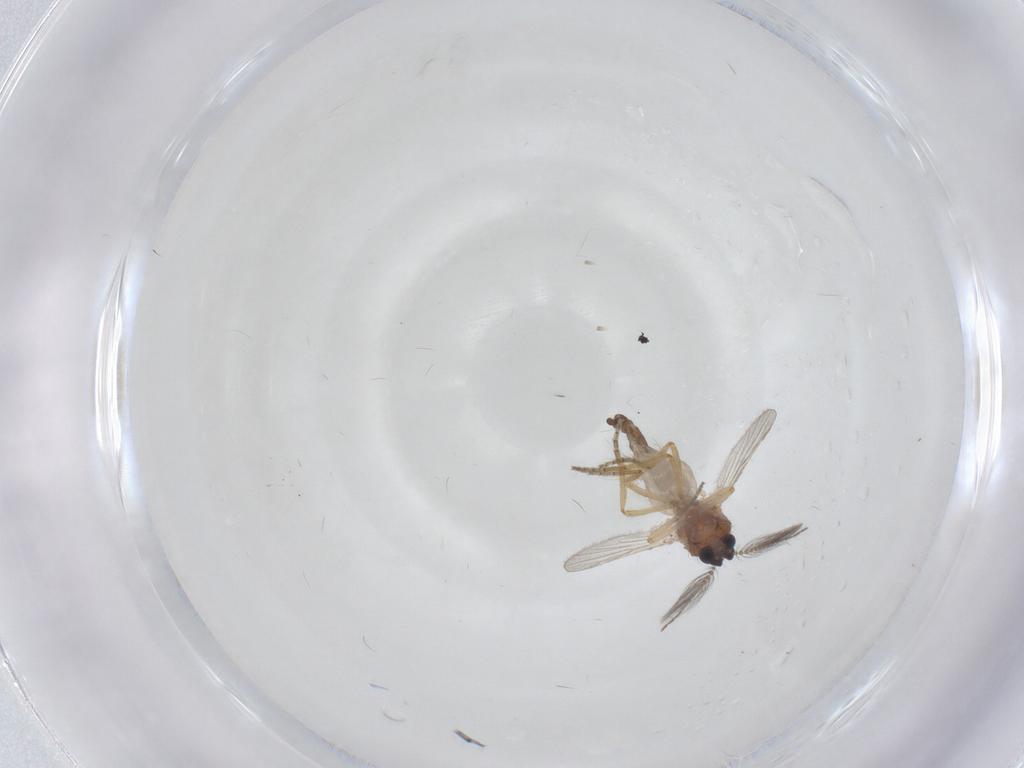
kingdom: Animalia
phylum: Arthropoda
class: Insecta
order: Diptera
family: Ceratopogonidae
